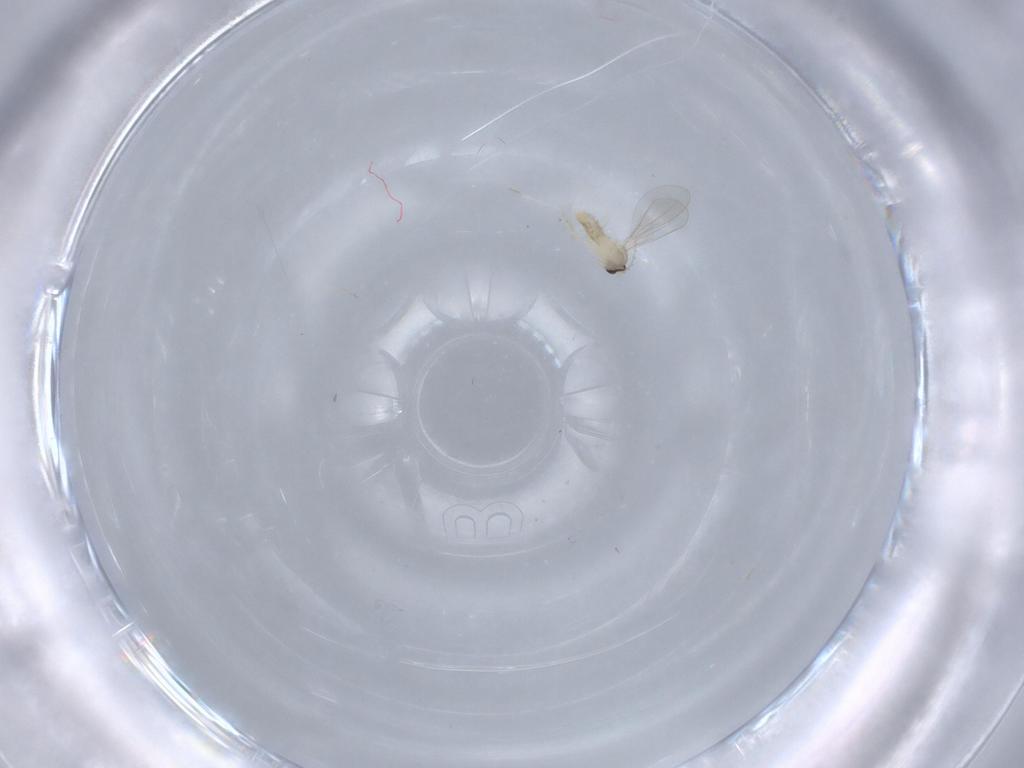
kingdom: Animalia
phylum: Arthropoda
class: Insecta
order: Diptera
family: Cecidomyiidae
